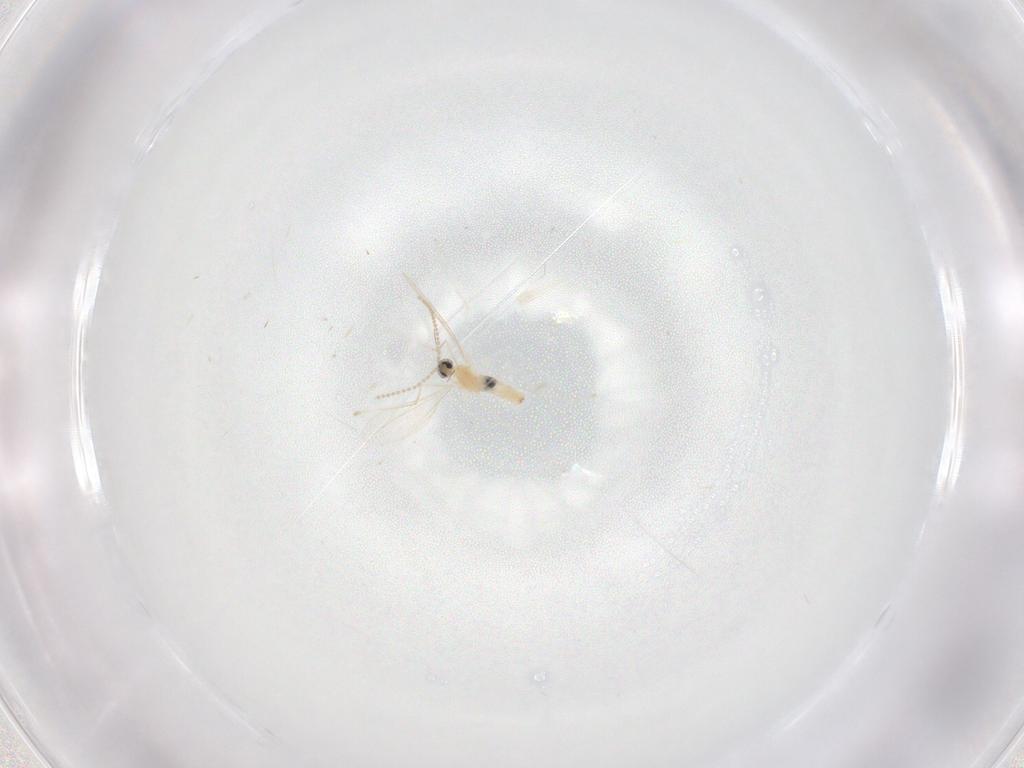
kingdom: Animalia
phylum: Arthropoda
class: Insecta
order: Diptera
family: Cecidomyiidae
